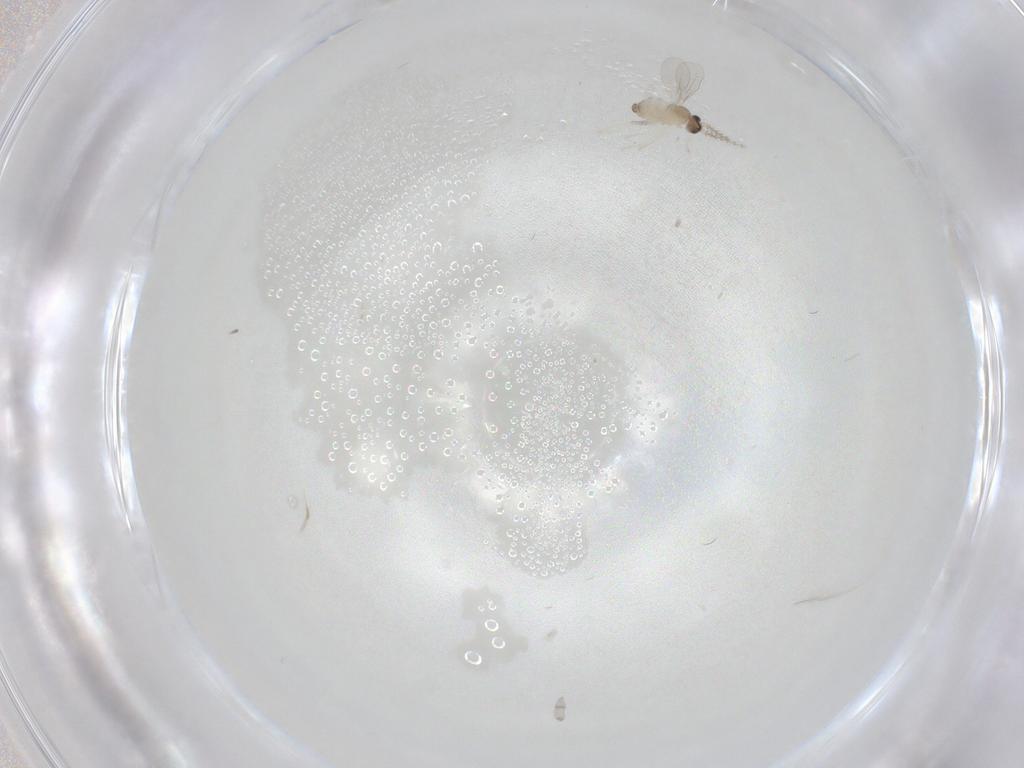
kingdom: Animalia
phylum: Arthropoda
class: Insecta
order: Diptera
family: Cecidomyiidae
